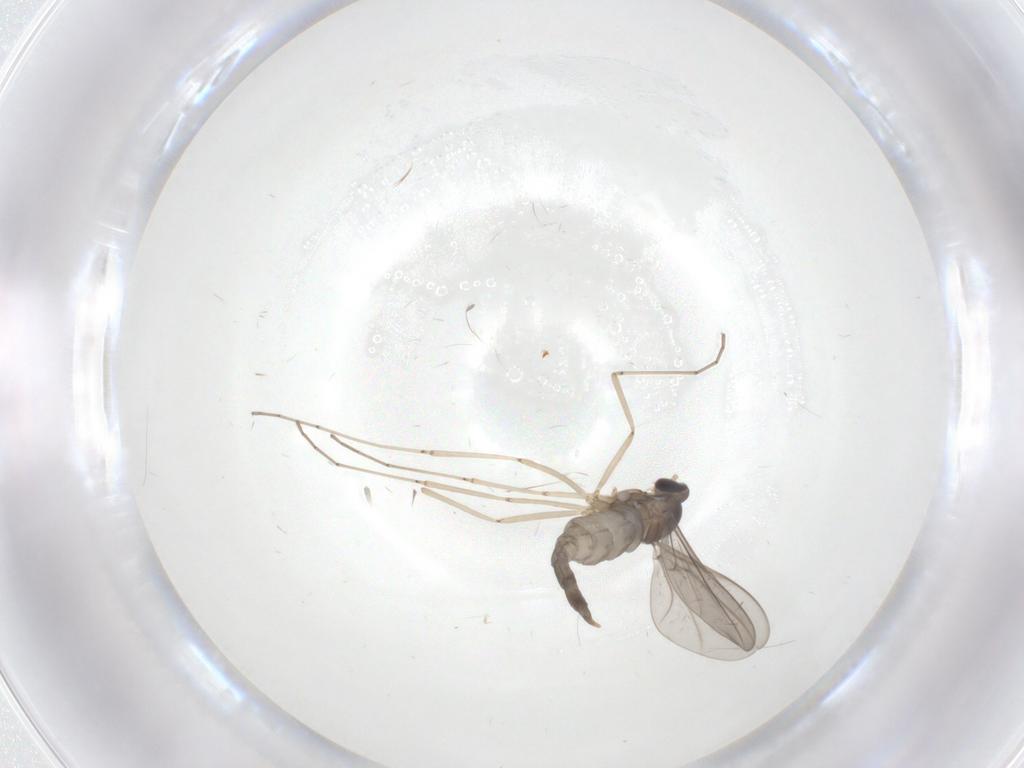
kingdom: Animalia
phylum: Arthropoda
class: Insecta
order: Diptera
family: Cecidomyiidae
